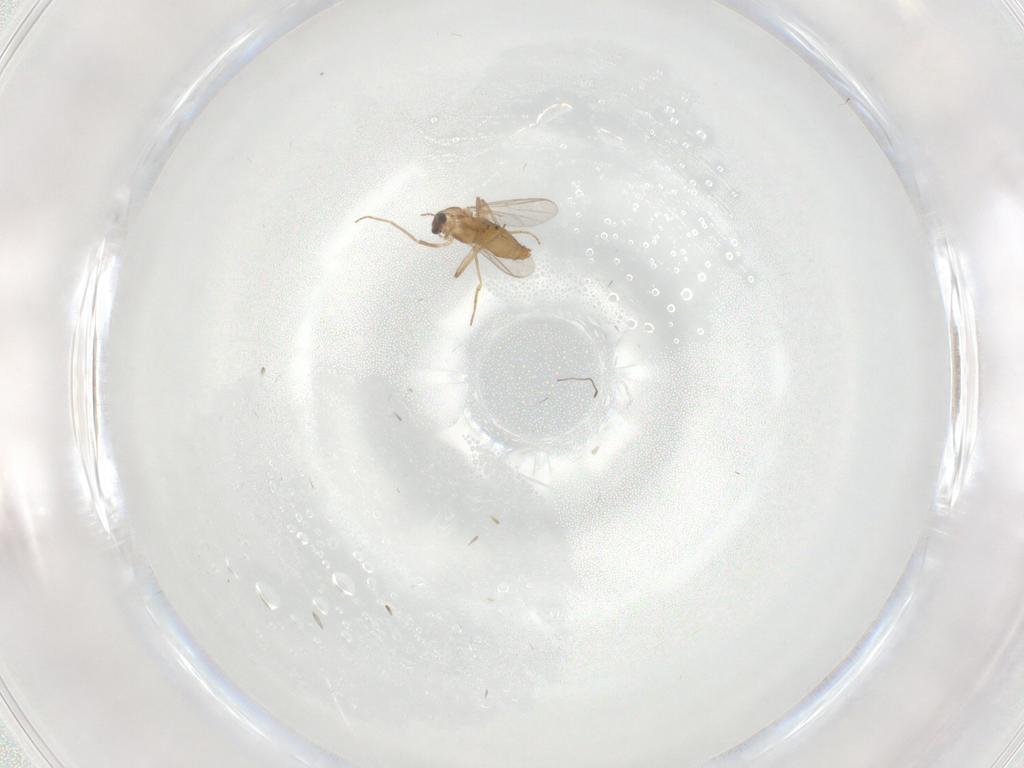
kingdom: Animalia
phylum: Arthropoda
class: Insecta
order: Diptera
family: Chironomidae
